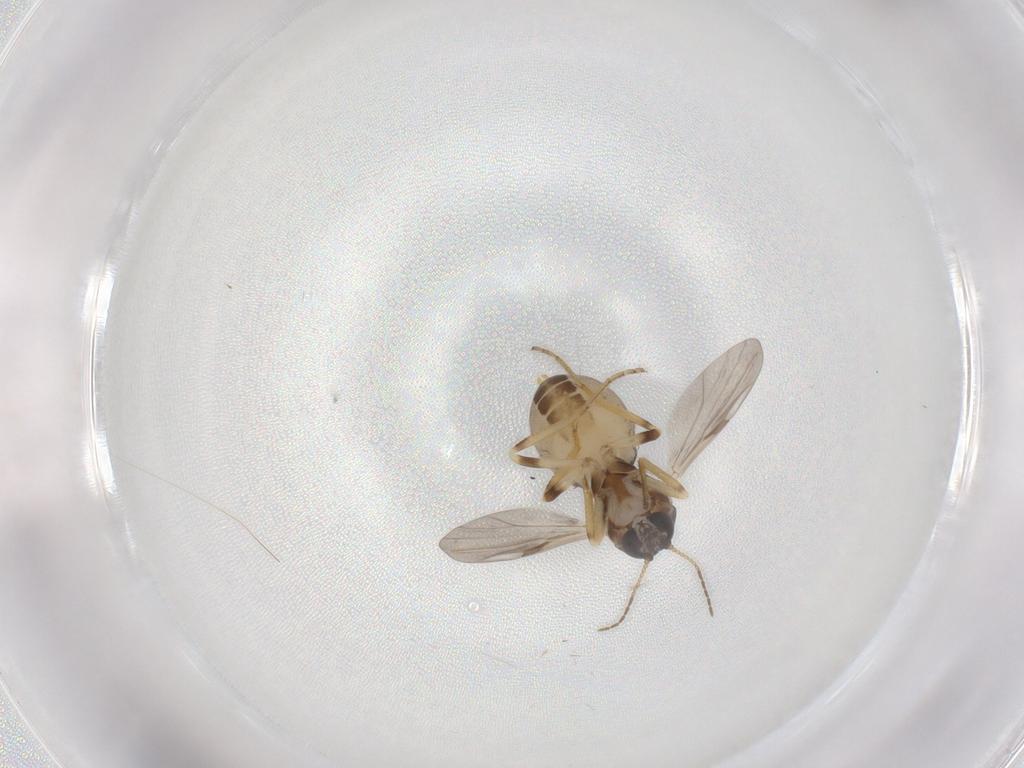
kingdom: Animalia
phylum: Arthropoda
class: Insecta
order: Diptera
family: Ceratopogonidae
